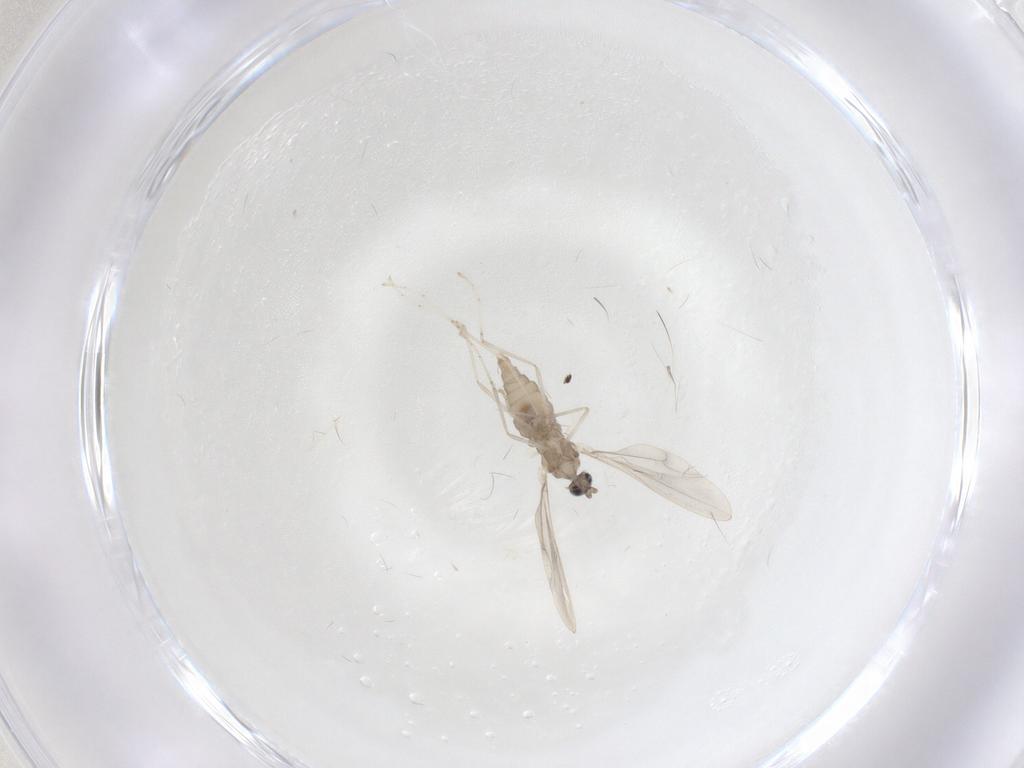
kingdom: Animalia
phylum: Arthropoda
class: Insecta
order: Diptera
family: Cecidomyiidae
